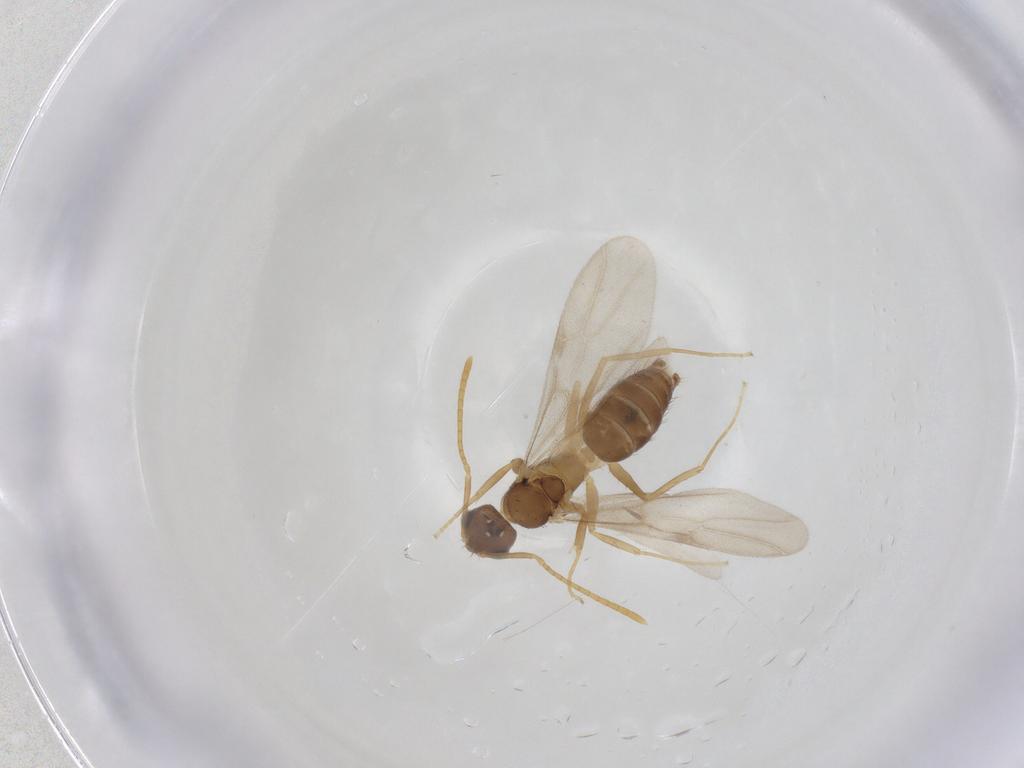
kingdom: Animalia
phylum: Arthropoda
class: Insecta
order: Hymenoptera
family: Formicidae
